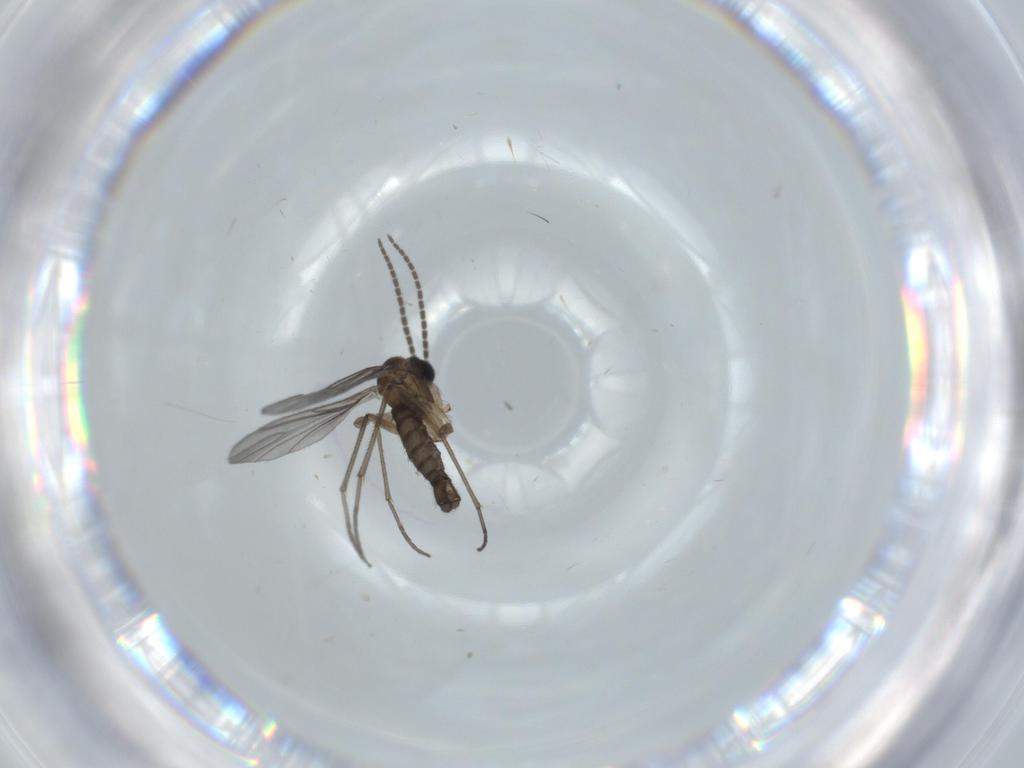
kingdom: Animalia
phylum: Arthropoda
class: Insecta
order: Diptera
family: Sciaridae
